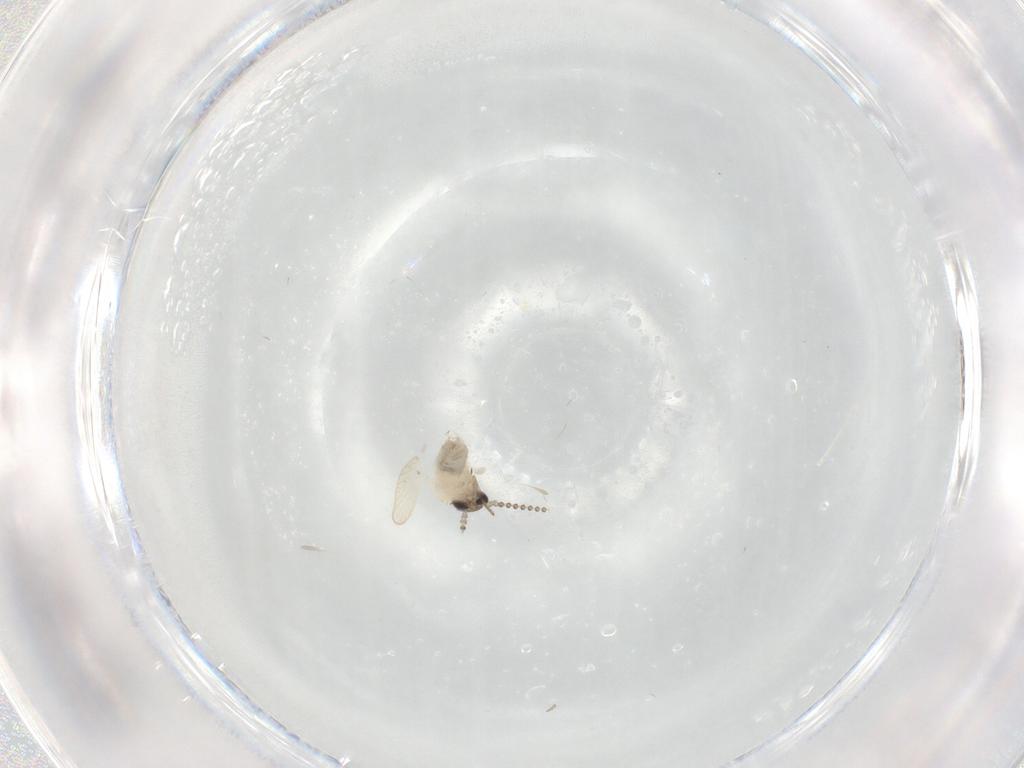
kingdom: Animalia
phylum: Arthropoda
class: Insecta
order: Diptera
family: Psychodidae
